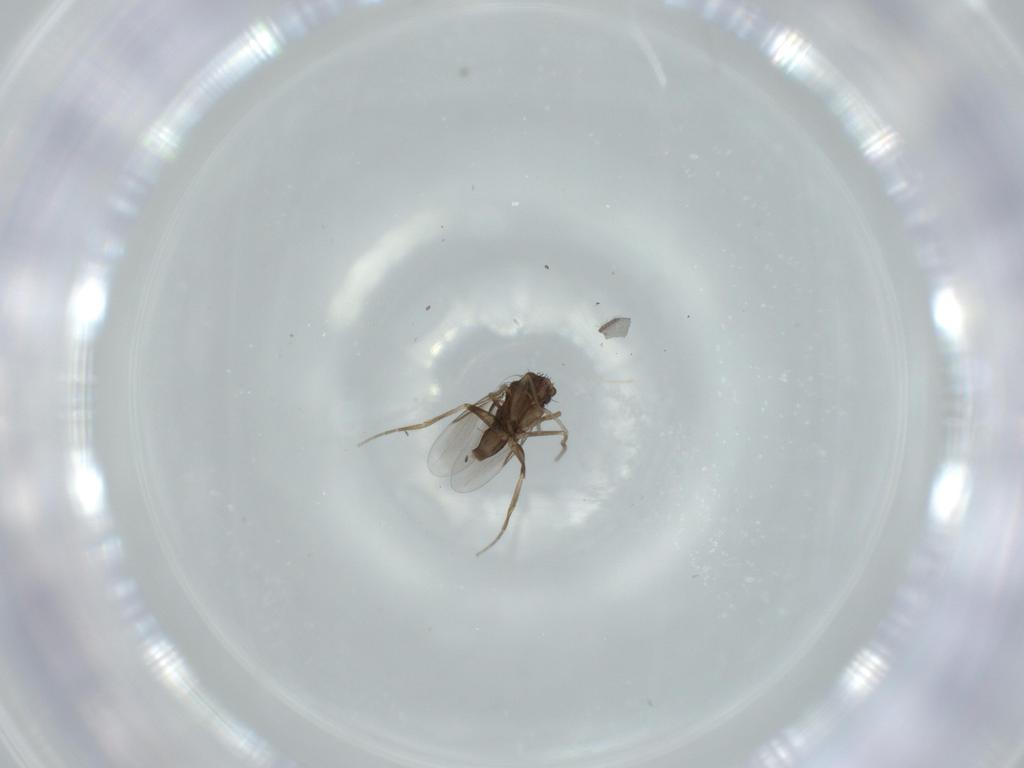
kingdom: Animalia
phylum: Arthropoda
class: Insecta
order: Diptera
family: Phoridae
